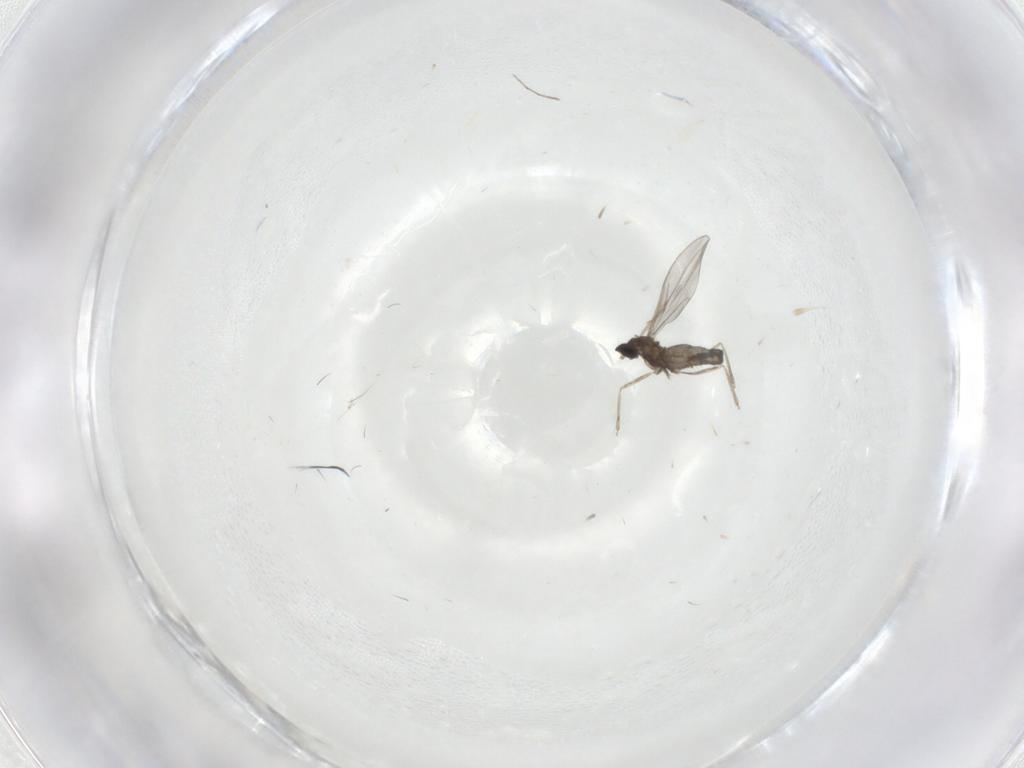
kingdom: Animalia
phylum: Arthropoda
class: Insecta
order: Diptera
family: Cecidomyiidae
